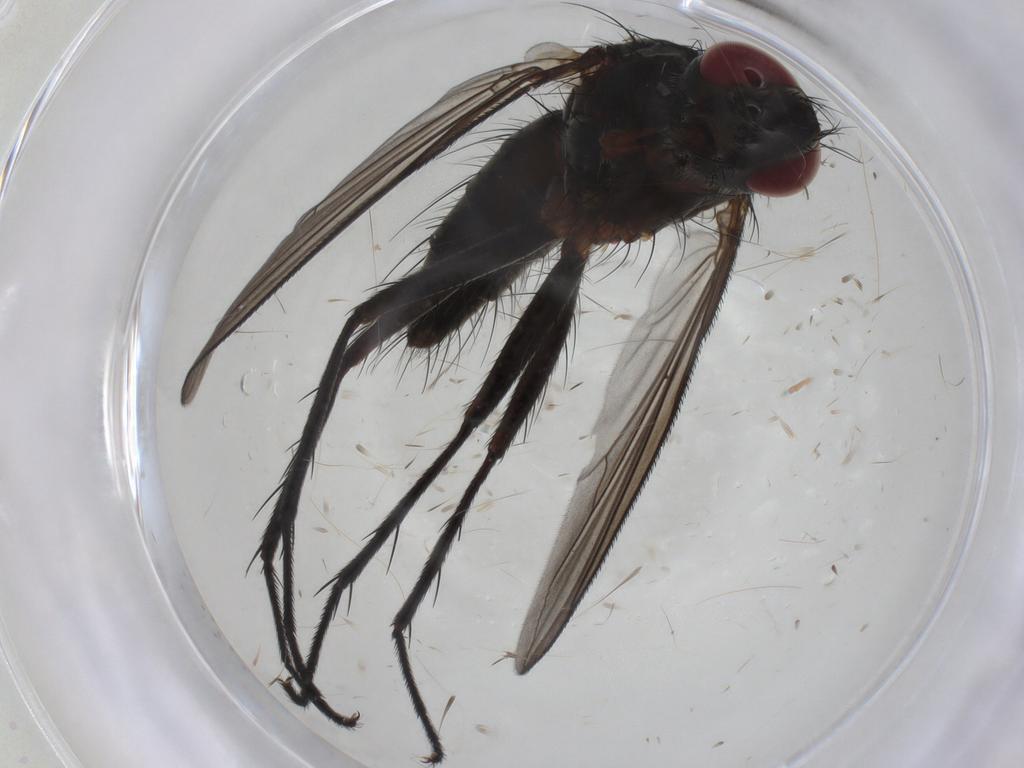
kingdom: Animalia
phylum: Arthropoda
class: Insecta
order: Diptera
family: Tachinidae
